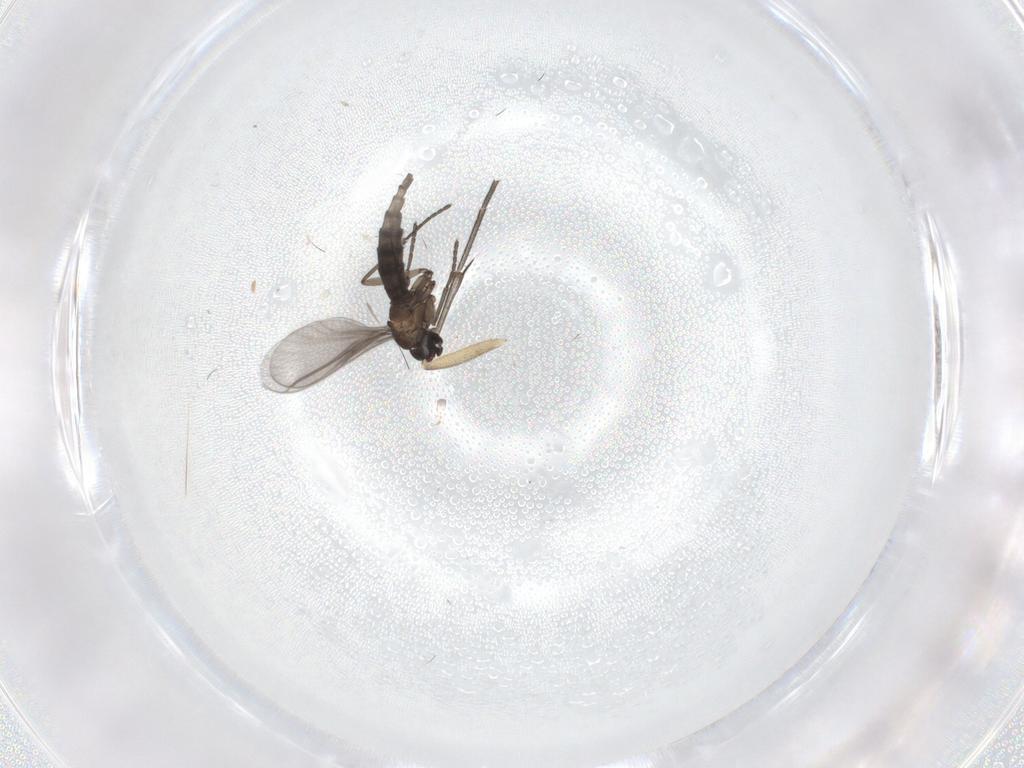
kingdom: Animalia
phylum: Arthropoda
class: Insecta
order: Diptera
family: Keroplatidae
